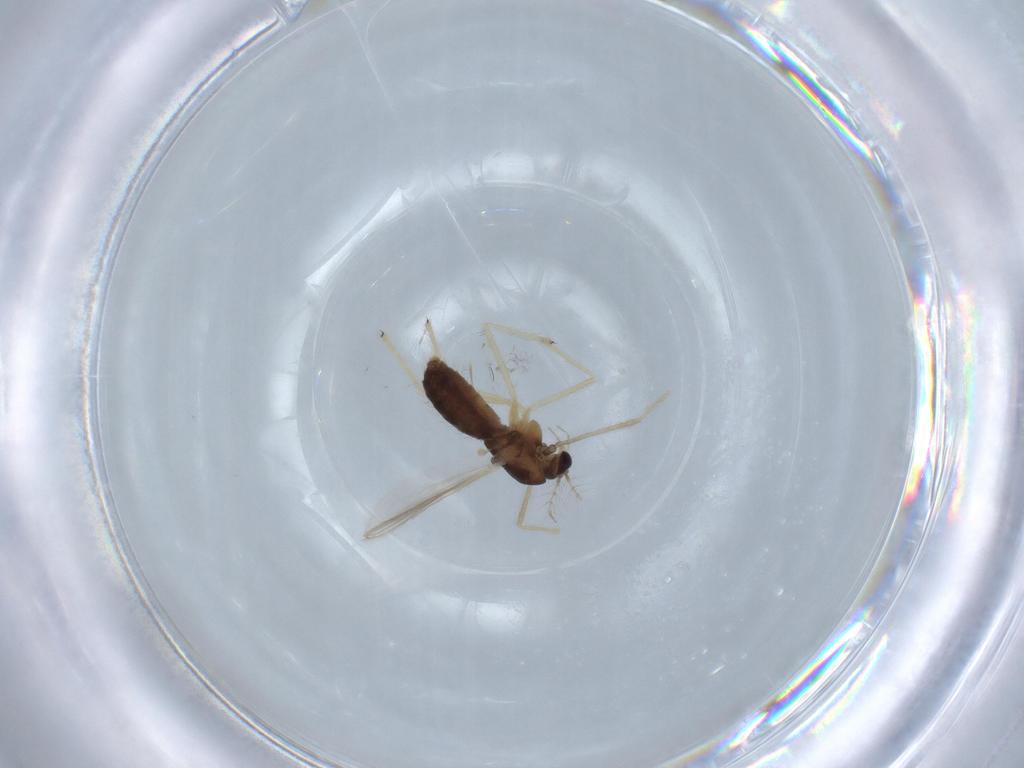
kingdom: Animalia
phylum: Arthropoda
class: Insecta
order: Diptera
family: Chironomidae
